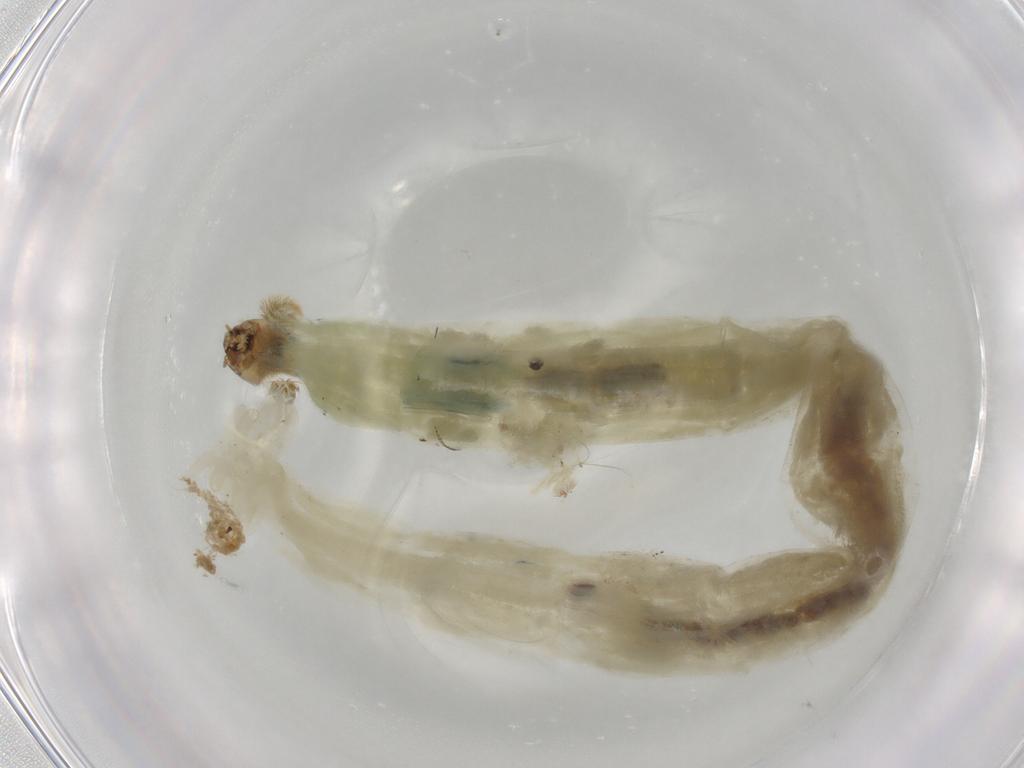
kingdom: Animalia
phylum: Arthropoda
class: Insecta
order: Diptera
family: Chironomidae
